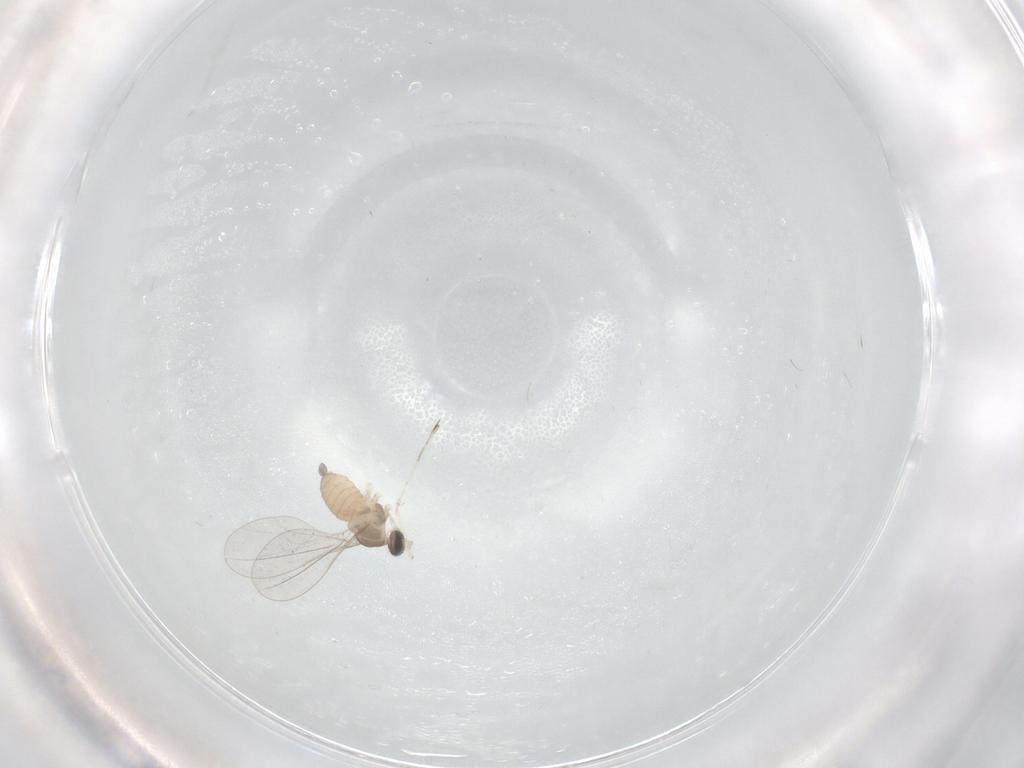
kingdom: Animalia
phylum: Arthropoda
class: Insecta
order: Diptera
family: Cecidomyiidae
